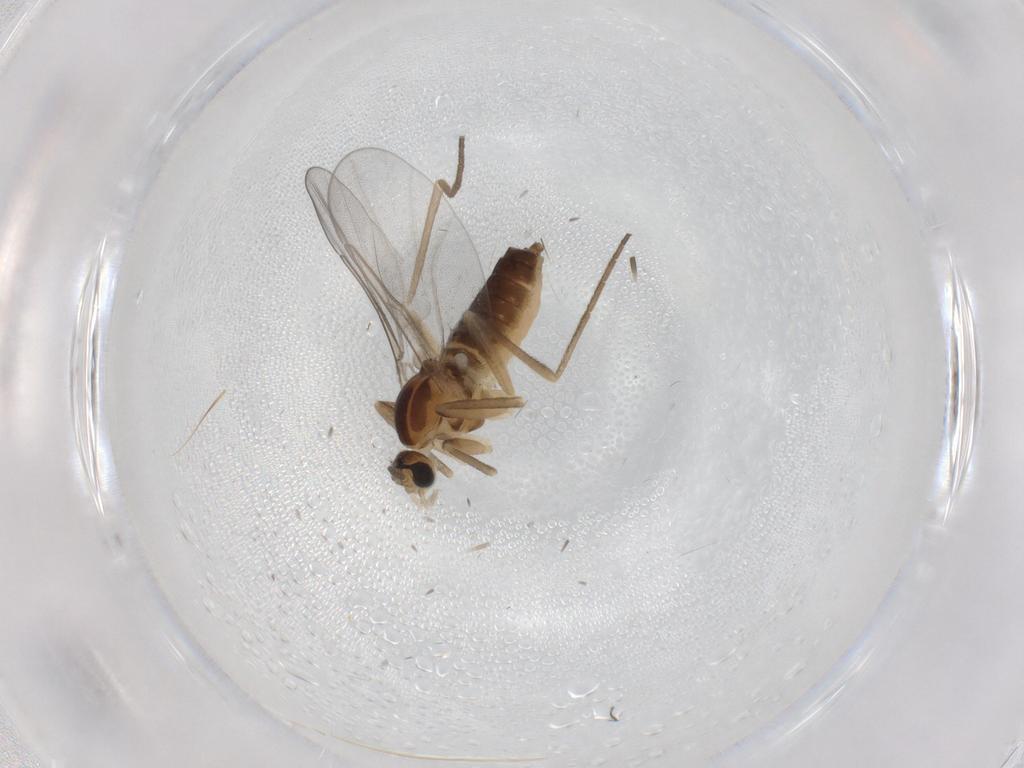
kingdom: Animalia
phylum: Arthropoda
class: Insecta
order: Diptera
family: Cecidomyiidae
